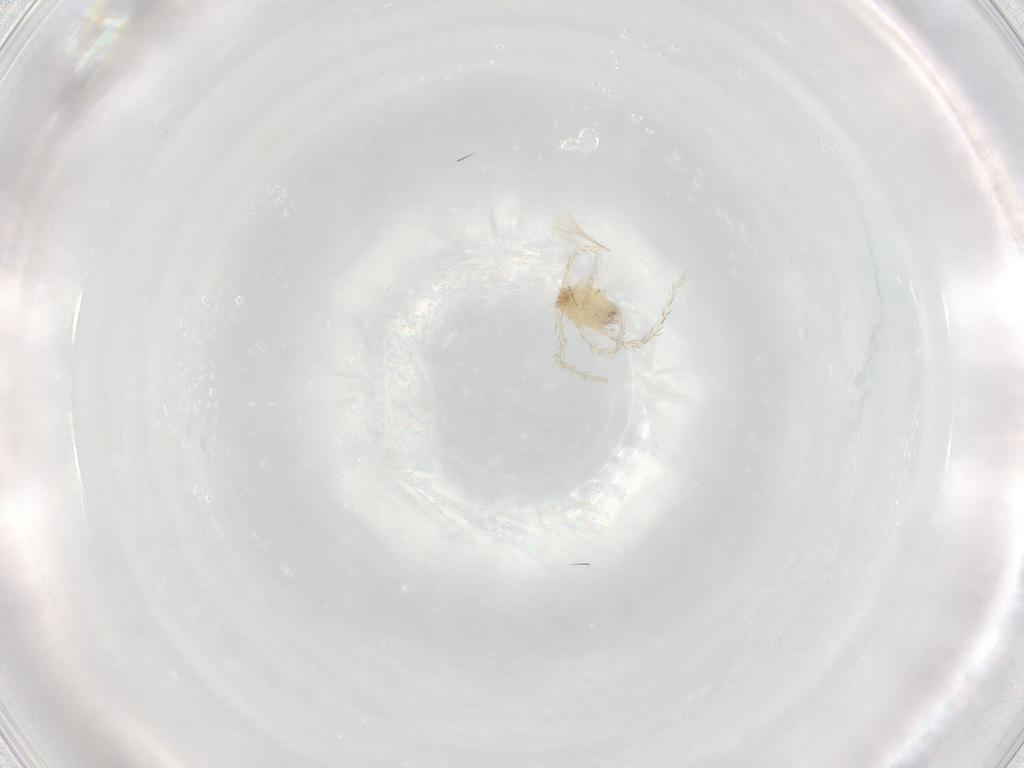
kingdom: Animalia
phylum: Arthropoda
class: Arachnida
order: Trombidiformes
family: Erythraeidae
